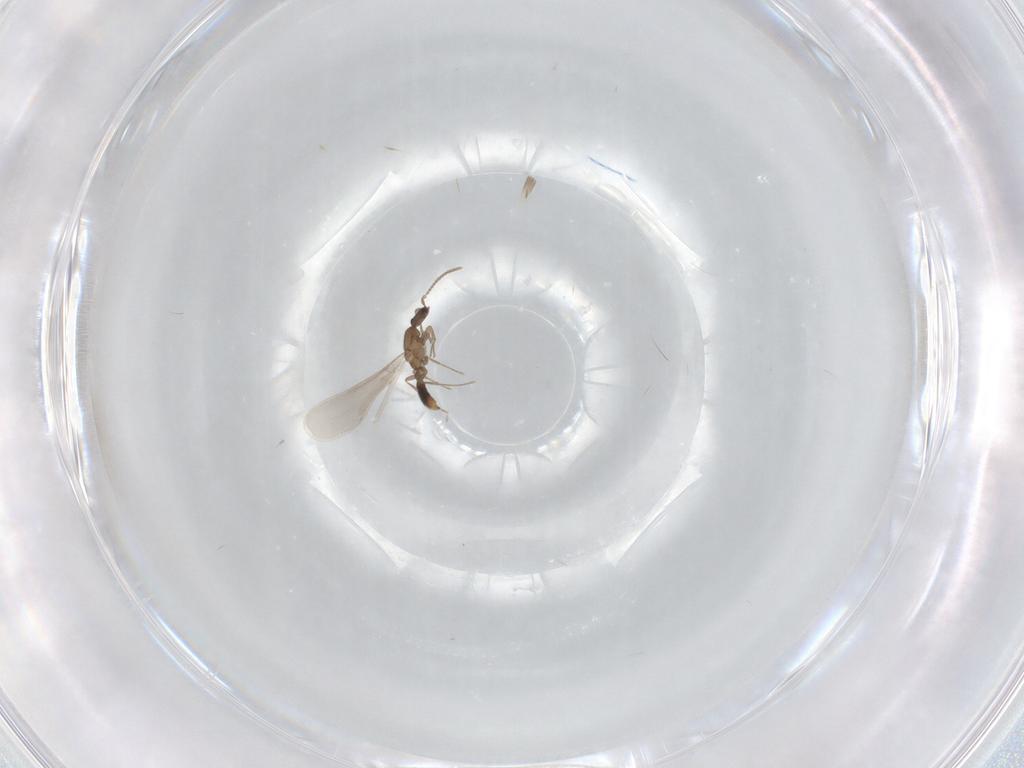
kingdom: Animalia
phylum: Arthropoda
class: Insecta
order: Hymenoptera
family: Formicidae
